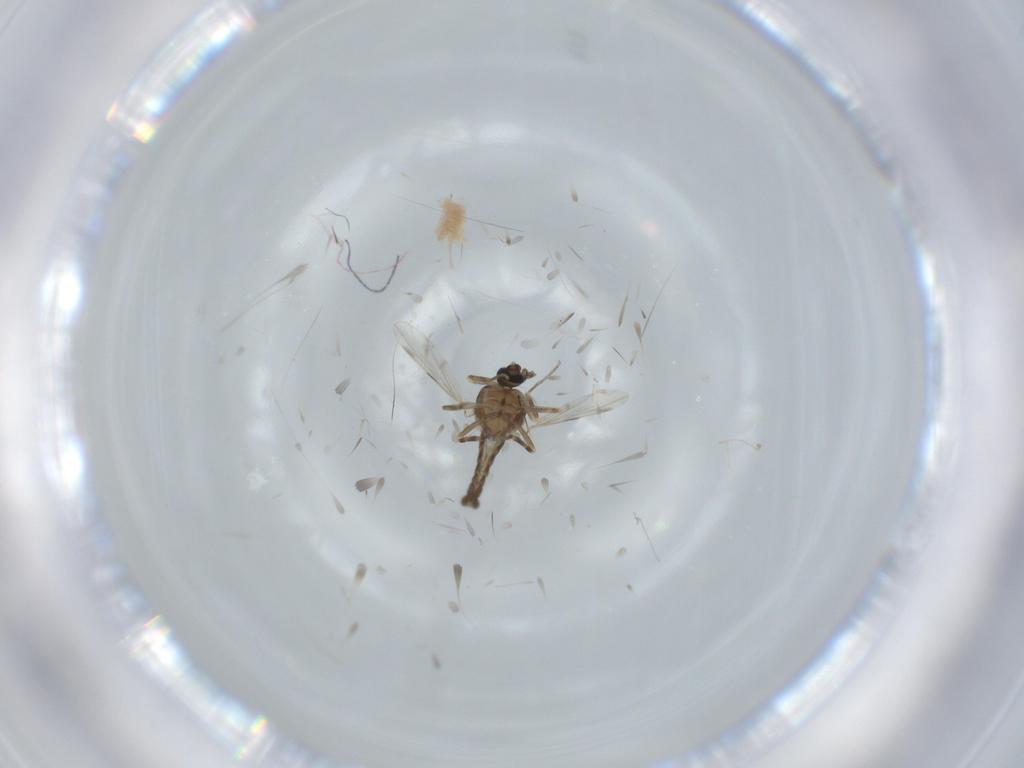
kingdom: Animalia
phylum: Arthropoda
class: Insecta
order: Diptera
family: Ceratopogonidae
